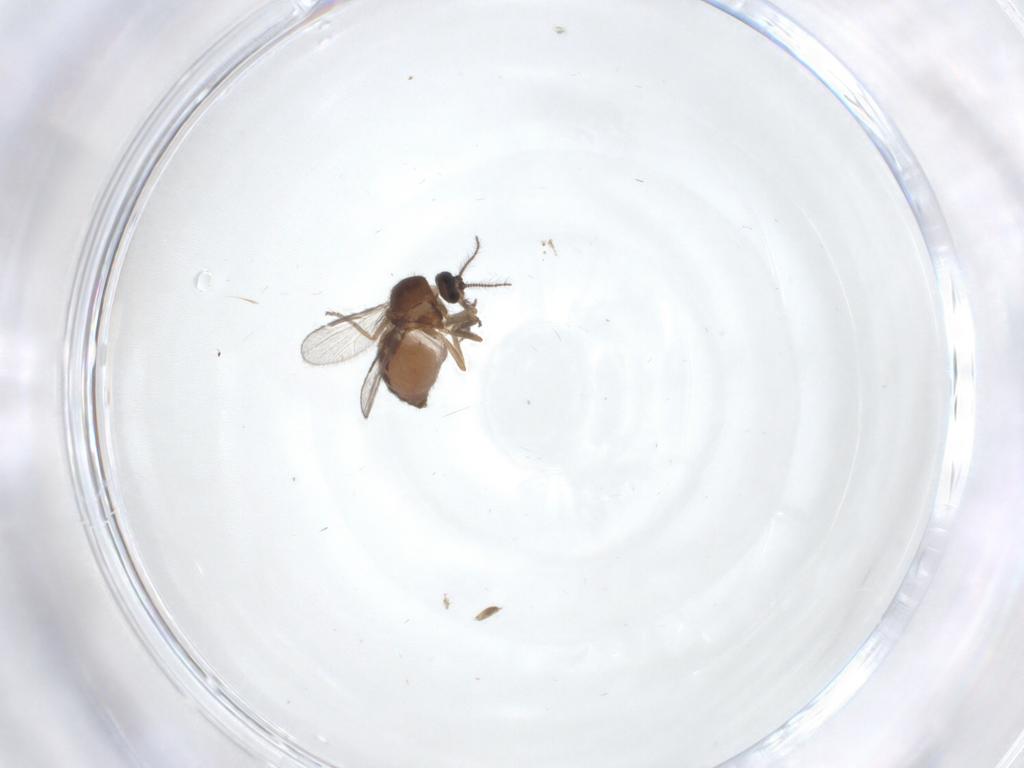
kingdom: Animalia
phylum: Arthropoda
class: Insecta
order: Diptera
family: Ceratopogonidae
